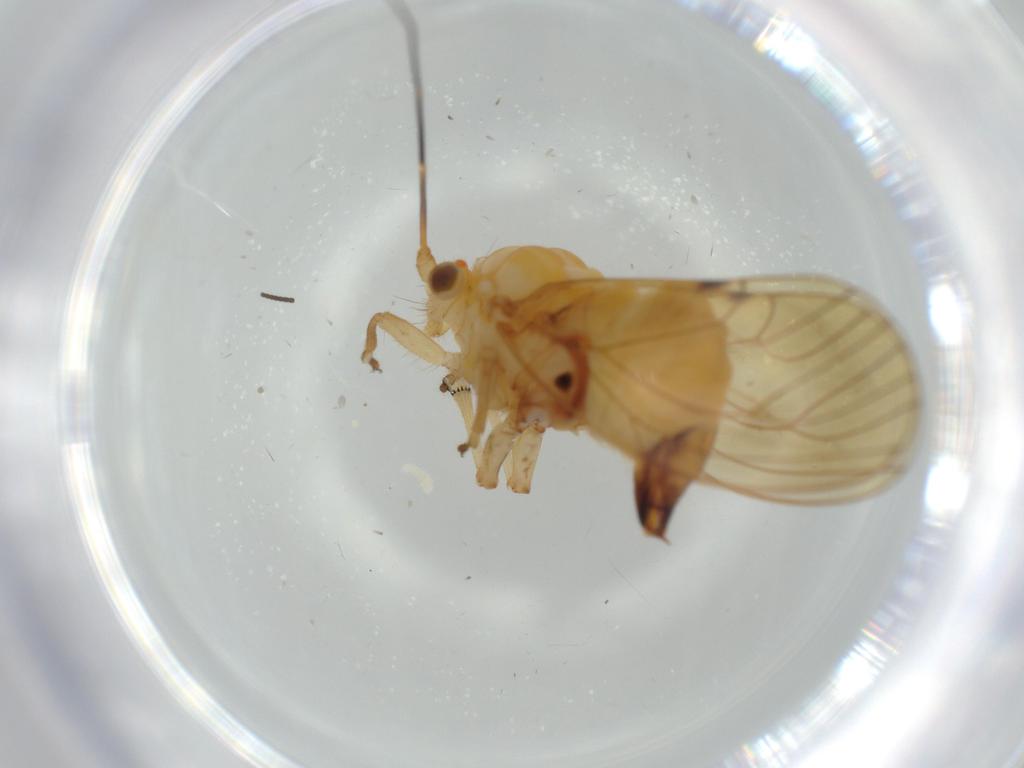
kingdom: Animalia
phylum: Arthropoda
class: Insecta
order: Hemiptera
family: Psyllidae
